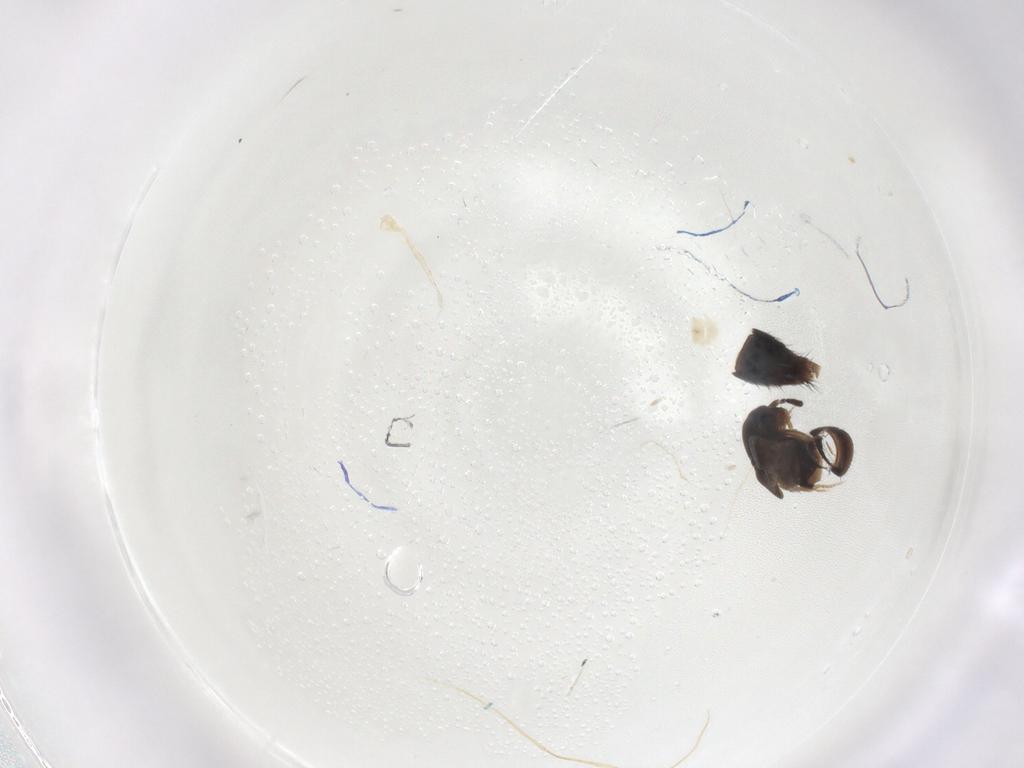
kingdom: Animalia
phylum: Arthropoda
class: Insecta
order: Coleoptera
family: Staphylinidae
